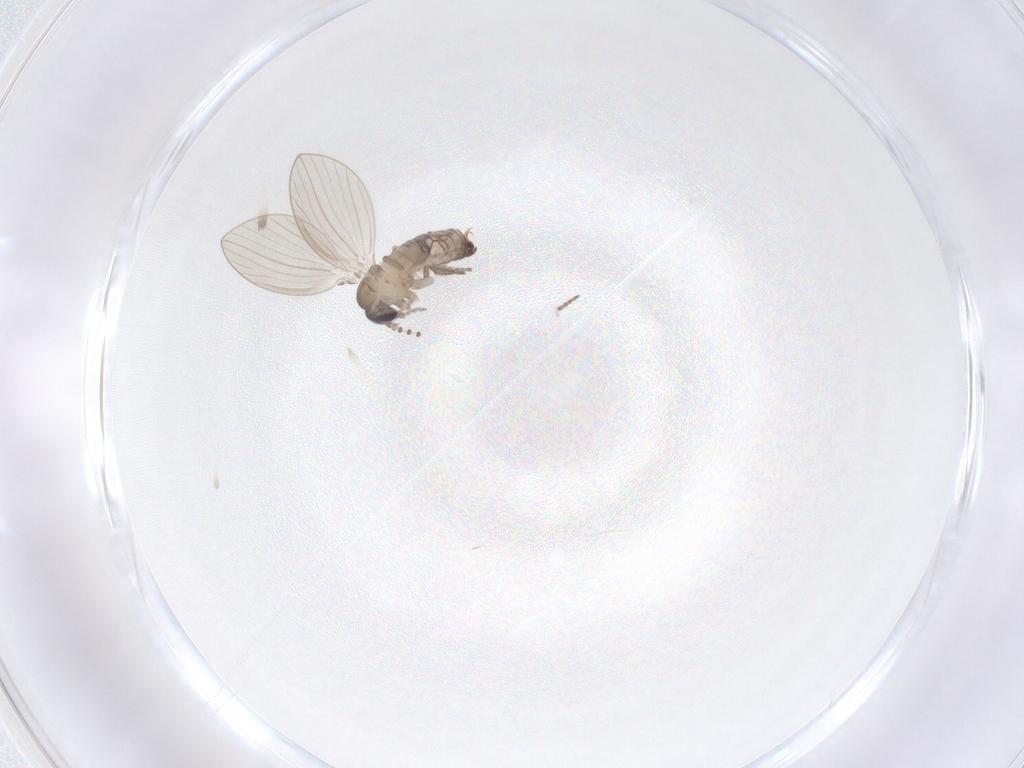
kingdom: Animalia
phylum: Arthropoda
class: Insecta
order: Diptera
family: Psychodidae
